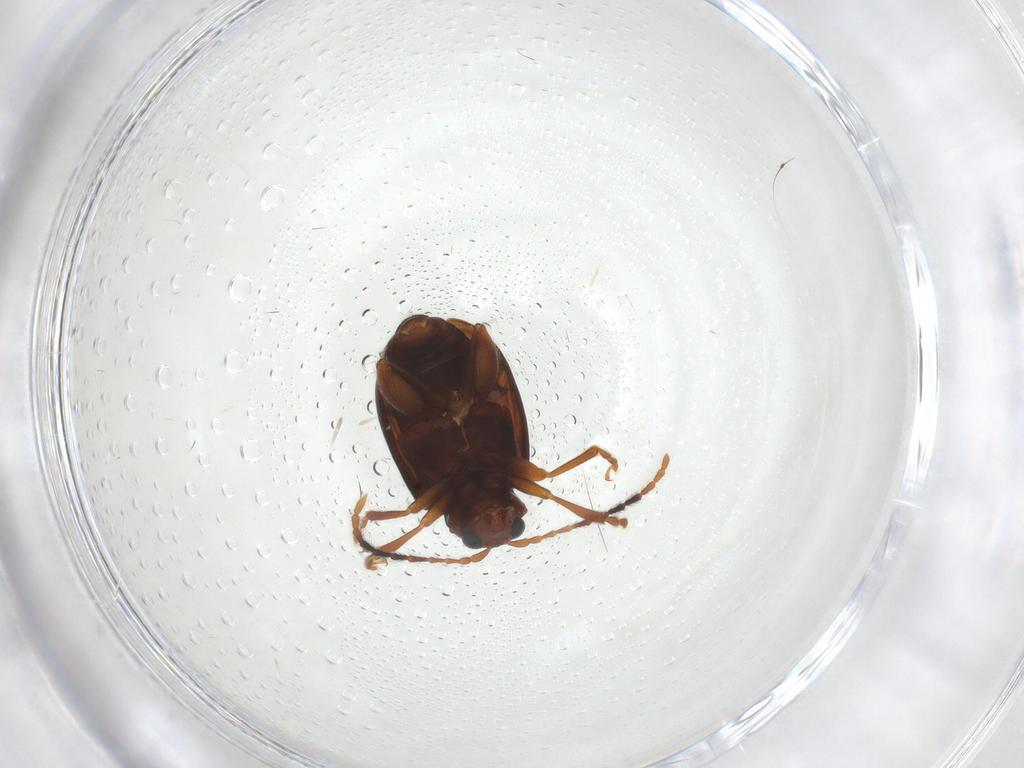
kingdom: Animalia
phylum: Arthropoda
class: Insecta
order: Coleoptera
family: Chrysomelidae
